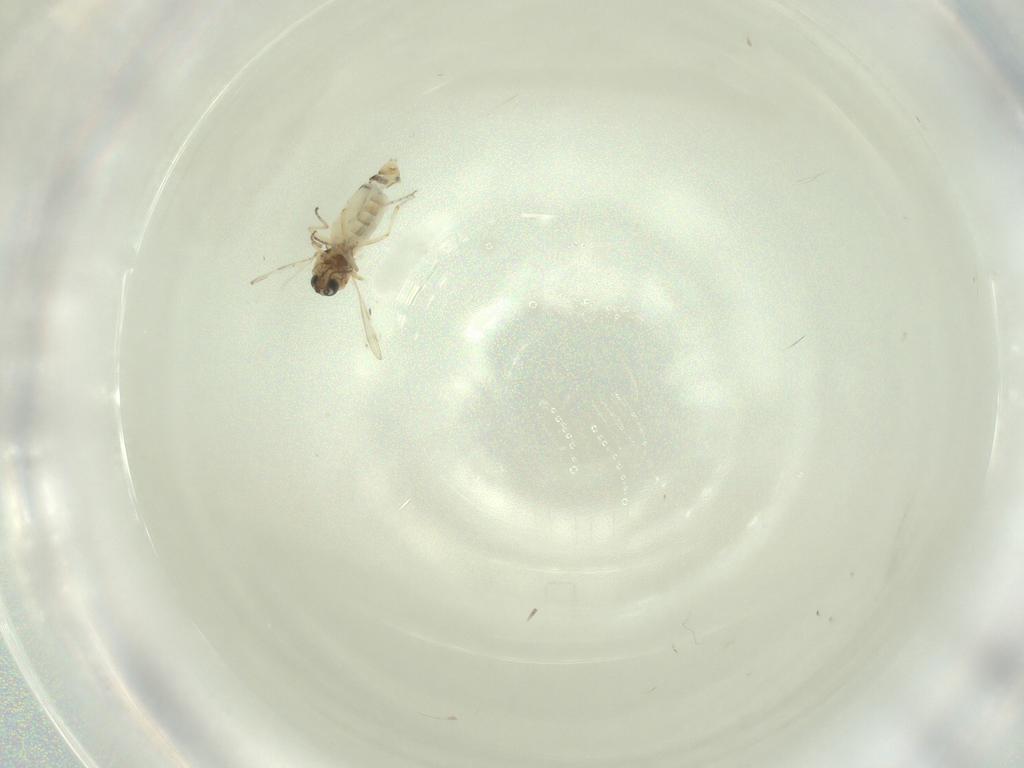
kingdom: Animalia
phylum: Arthropoda
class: Insecta
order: Diptera
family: Ceratopogonidae
